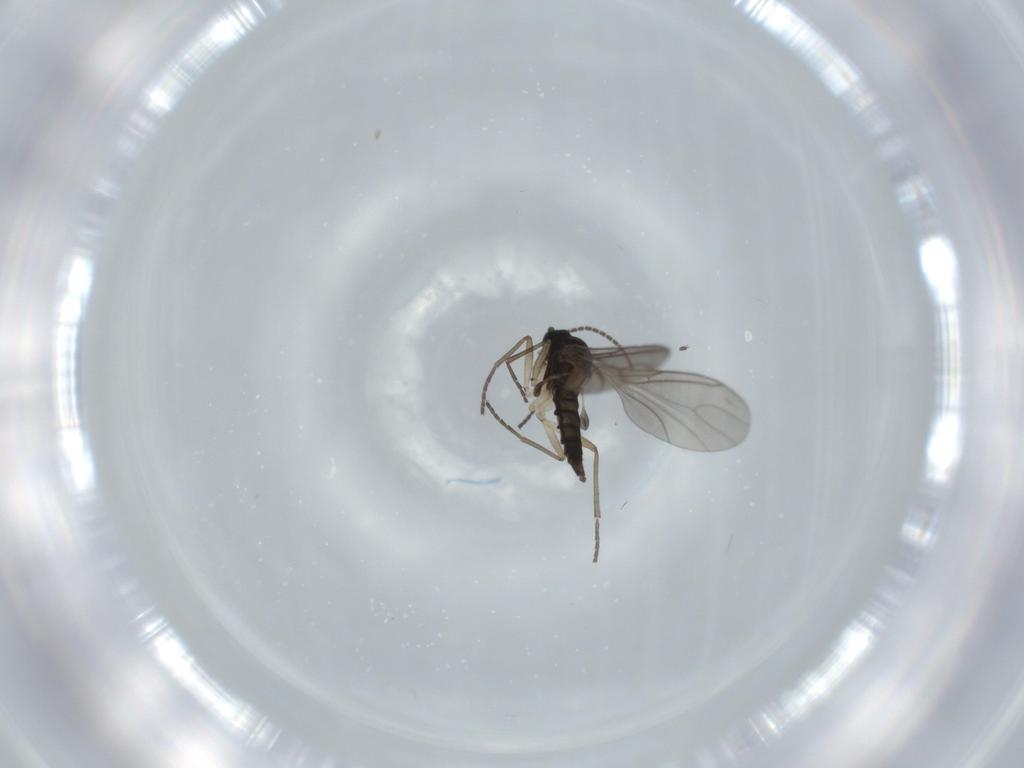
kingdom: Animalia
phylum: Arthropoda
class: Insecta
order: Diptera
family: Sciaridae
